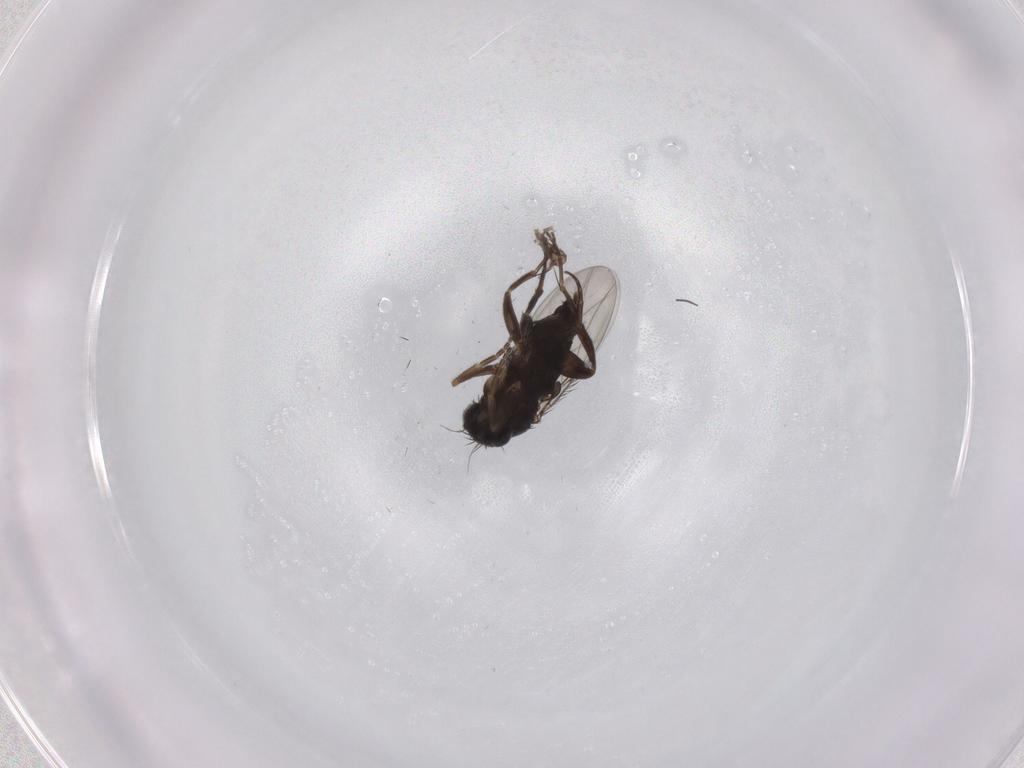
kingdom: Animalia
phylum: Arthropoda
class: Insecta
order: Diptera
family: Phoridae
